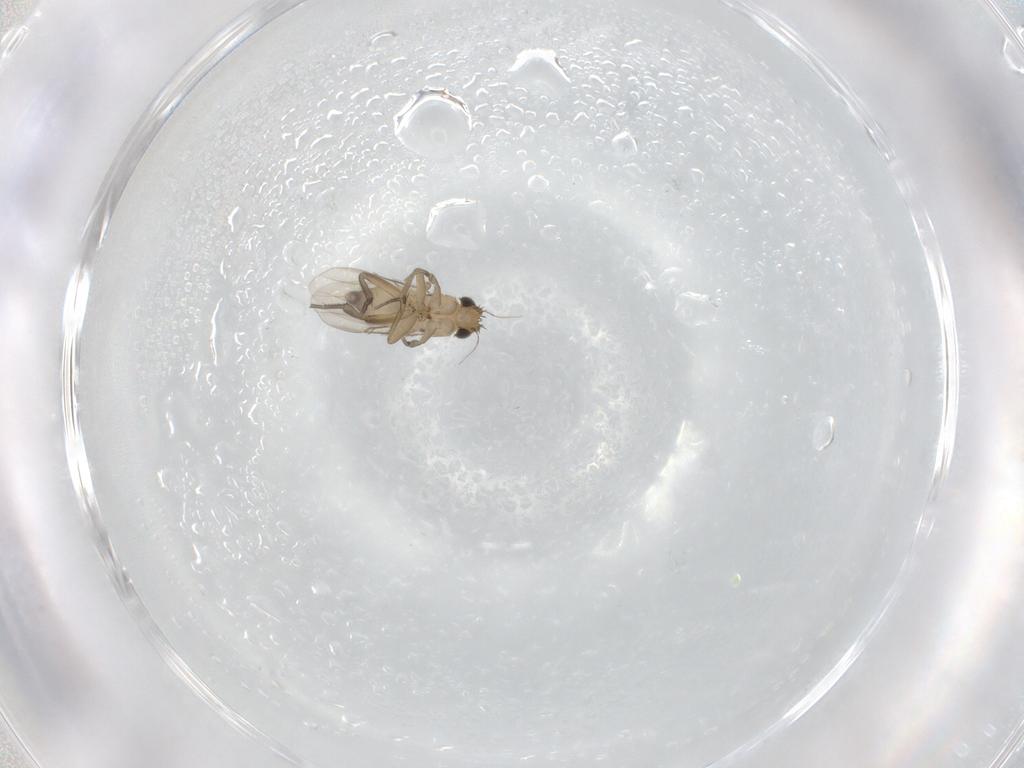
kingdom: Animalia
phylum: Arthropoda
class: Insecta
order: Diptera
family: Phoridae
